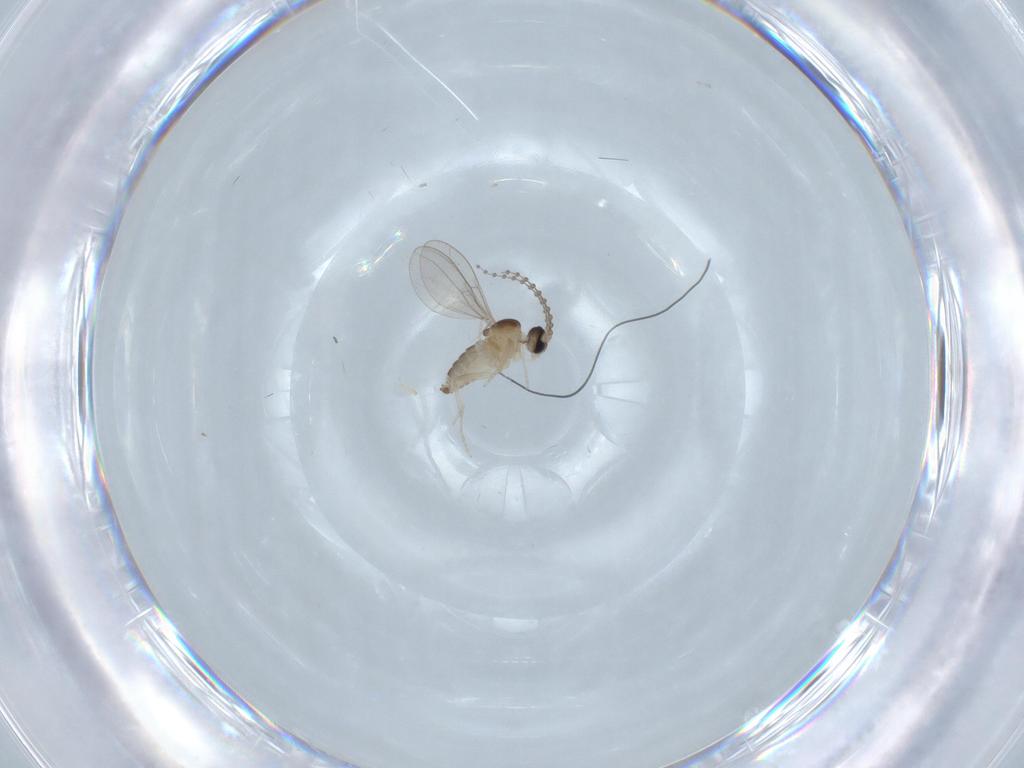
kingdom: Animalia
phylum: Arthropoda
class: Insecta
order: Diptera
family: Cecidomyiidae
